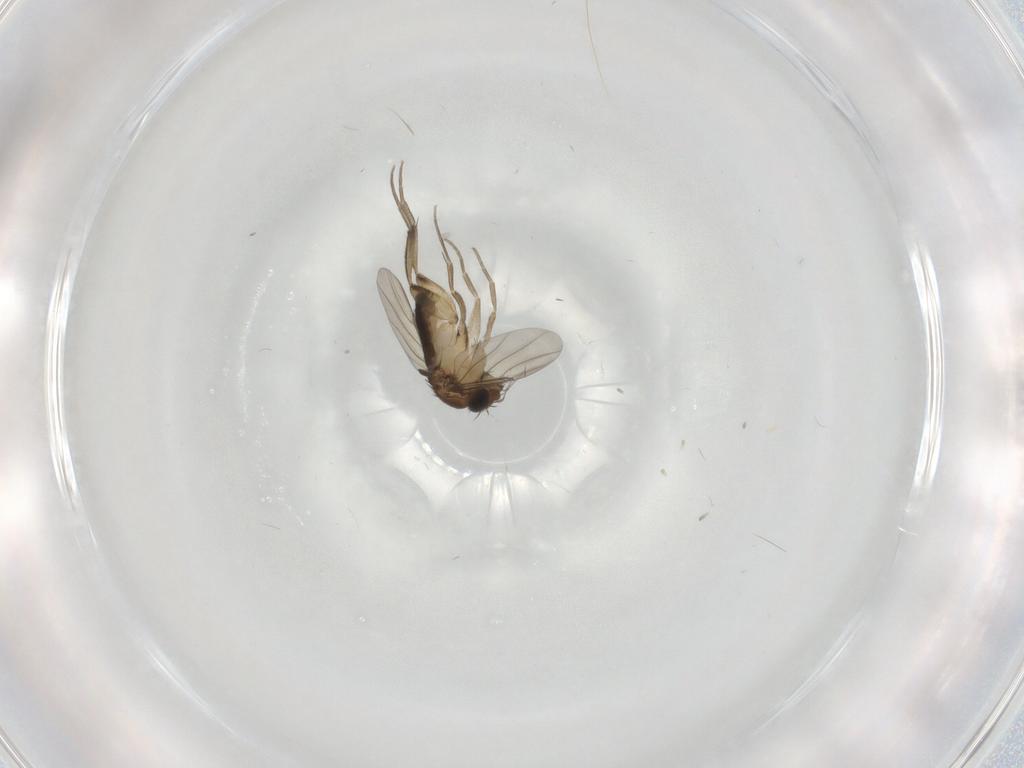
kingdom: Animalia
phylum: Arthropoda
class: Insecta
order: Diptera
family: Phoridae
